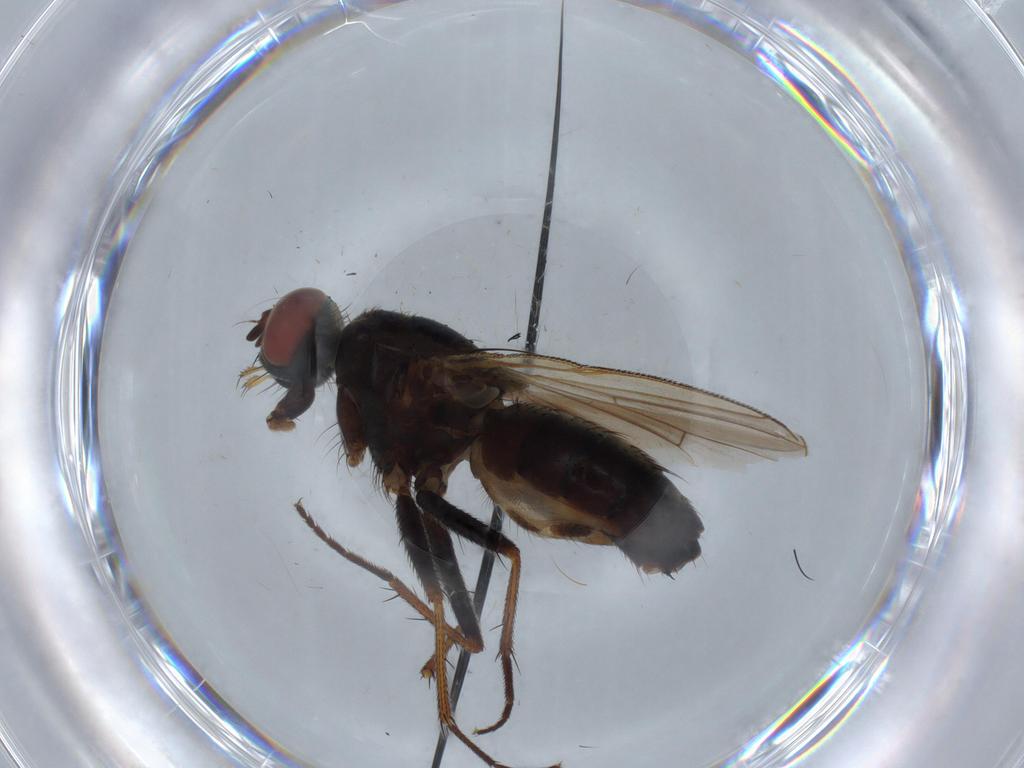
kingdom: Animalia
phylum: Arthropoda
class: Insecta
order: Diptera
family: Muscidae
